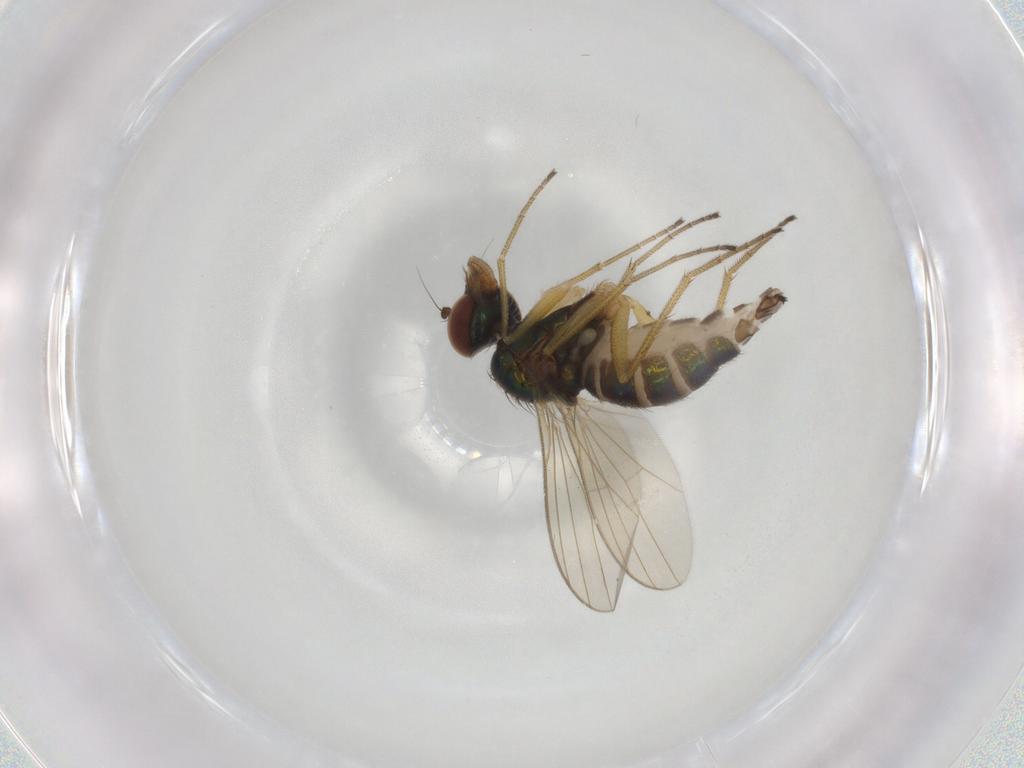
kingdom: Animalia
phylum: Arthropoda
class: Insecta
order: Diptera
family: Dolichopodidae
